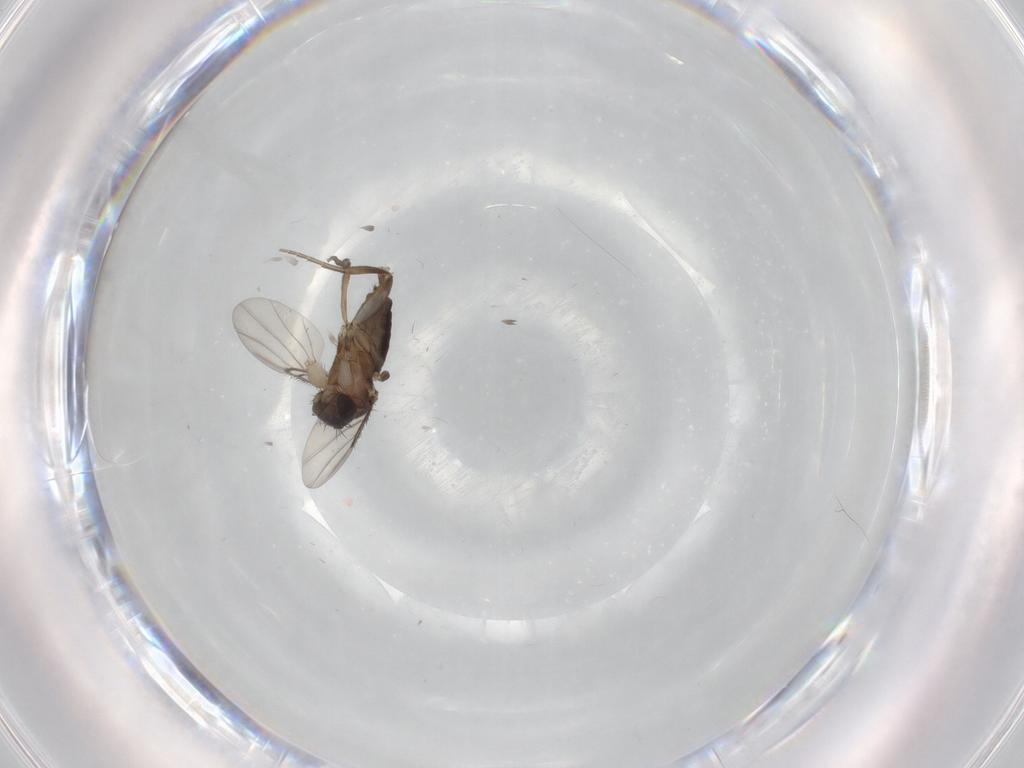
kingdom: Animalia
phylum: Arthropoda
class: Insecta
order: Diptera
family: Phoridae
